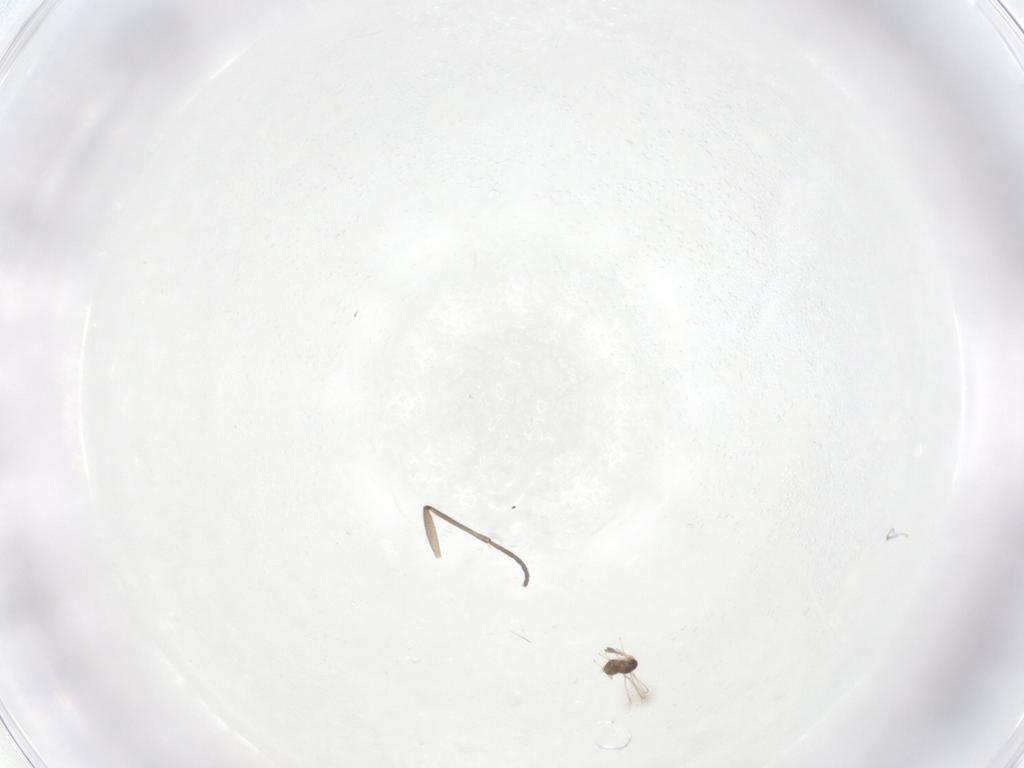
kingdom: Animalia
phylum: Arthropoda
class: Insecta
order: Diptera
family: Sciaridae
